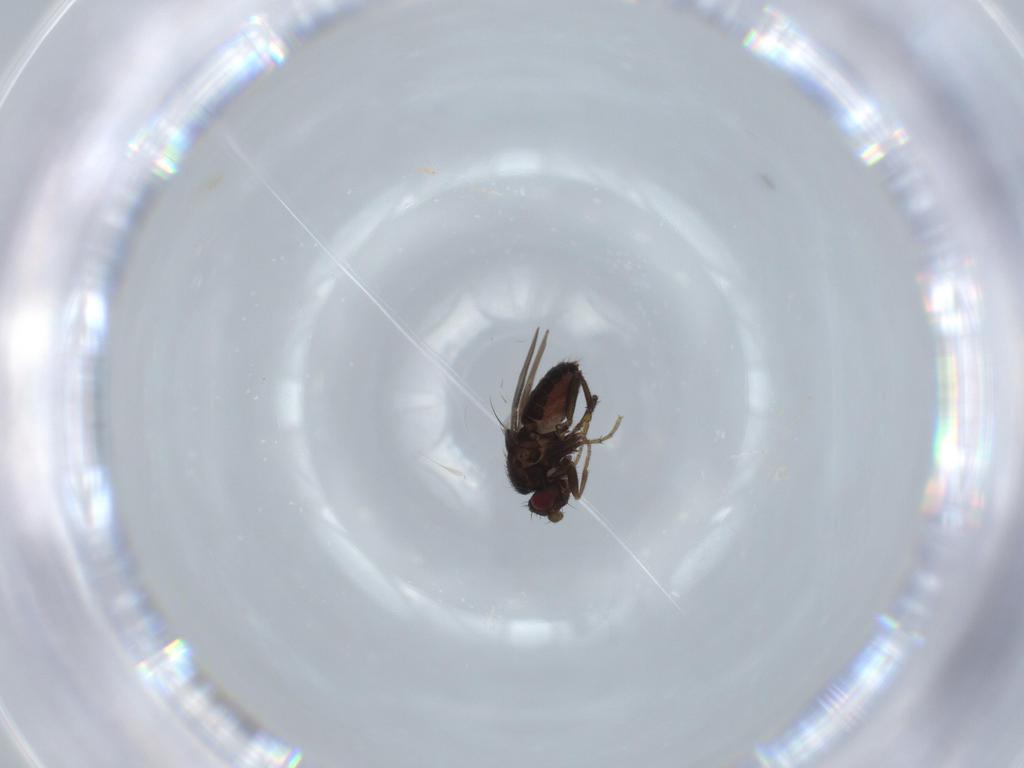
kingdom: Animalia
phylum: Arthropoda
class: Insecta
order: Diptera
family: Sphaeroceridae
